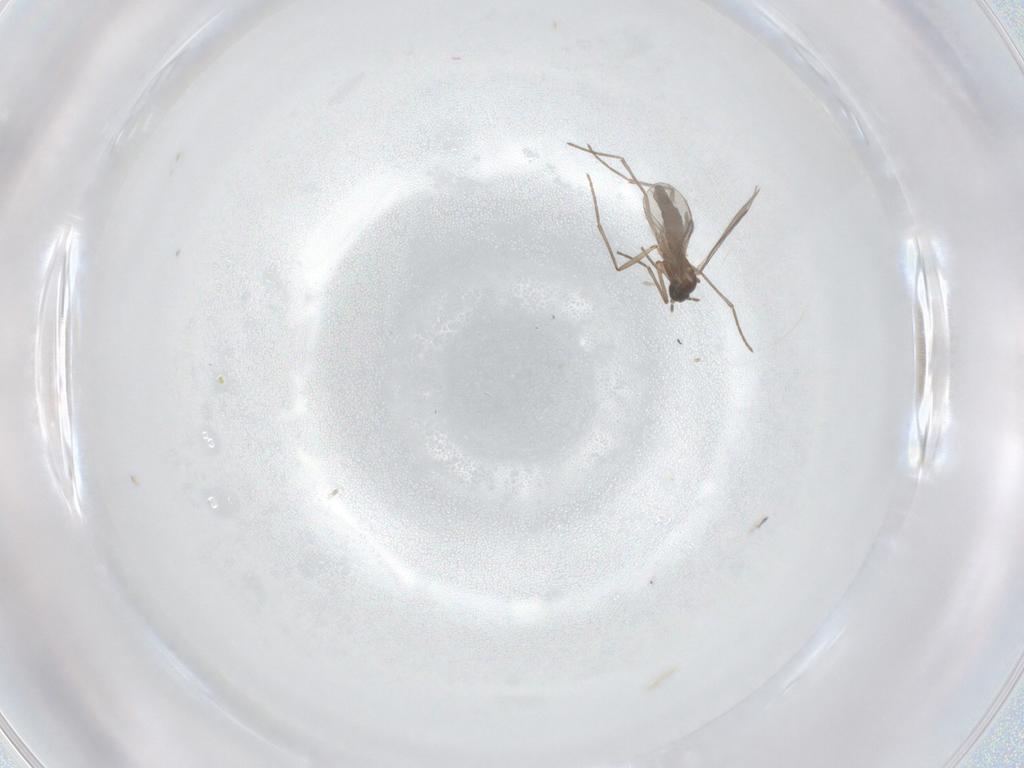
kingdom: Animalia
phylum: Arthropoda
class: Insecta
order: Diptera
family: Sciaridae
